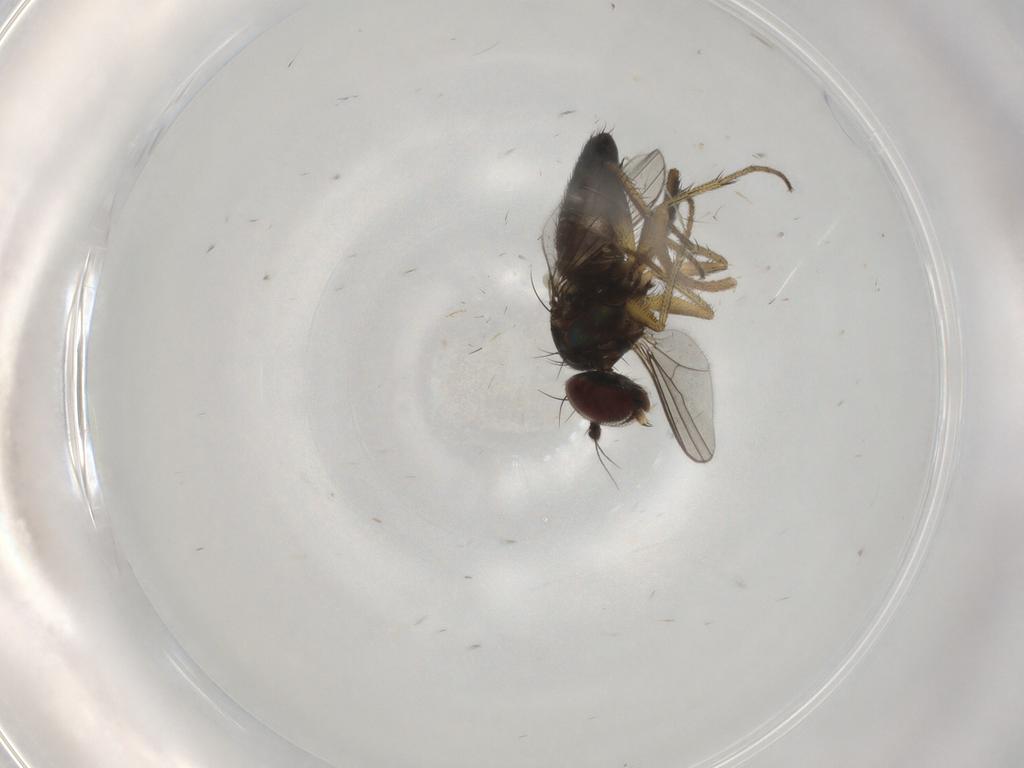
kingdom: Animalia
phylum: Arthropoda
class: Insecta
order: Diptera
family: Dolichopodidae
